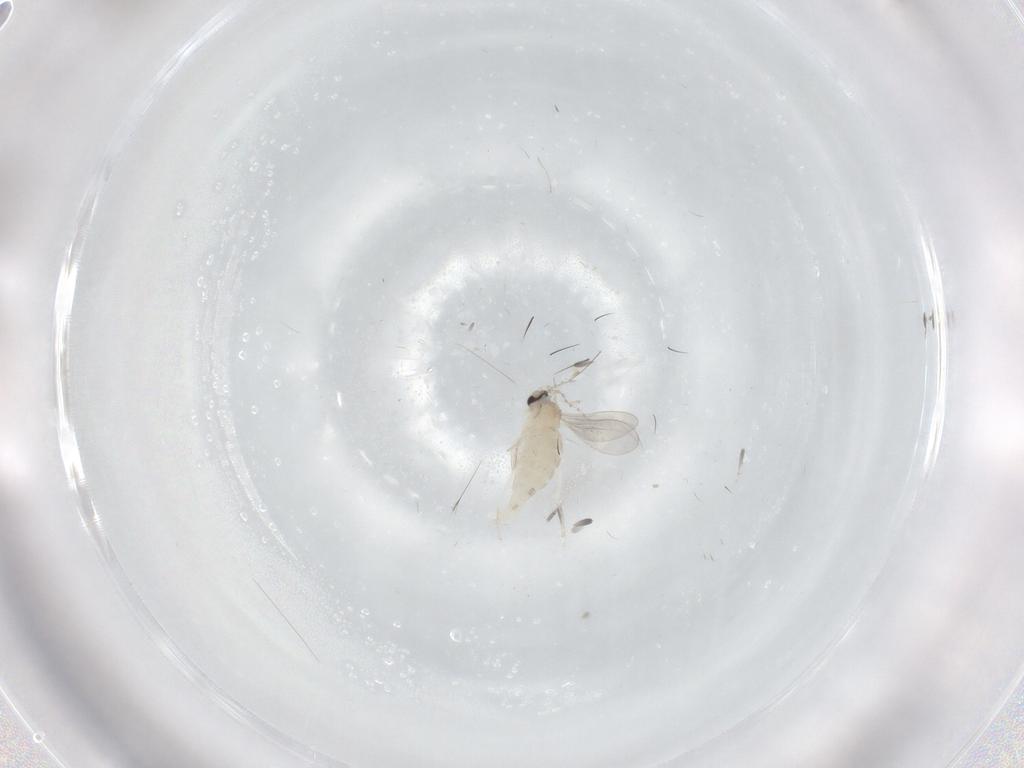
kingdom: Animalia
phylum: Arthropoda
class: Insecta
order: Diptera
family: Cecidomyiidae
